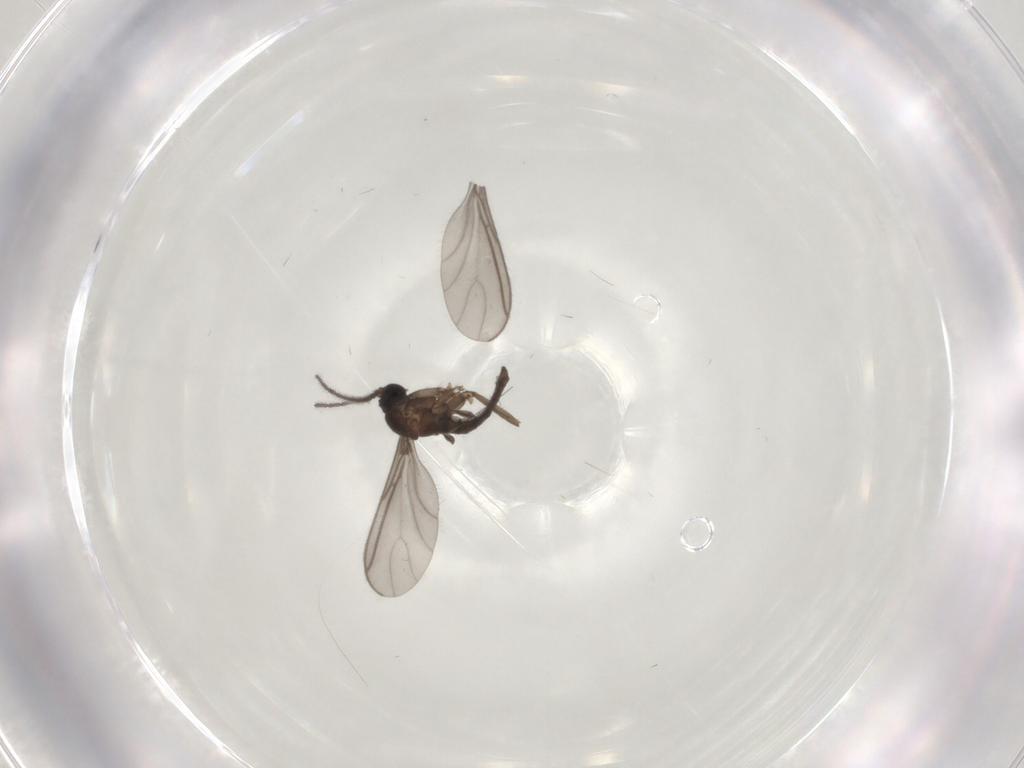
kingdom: Animalia
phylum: Arthropoda
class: Insecta
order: Diptera
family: Sciaridae
